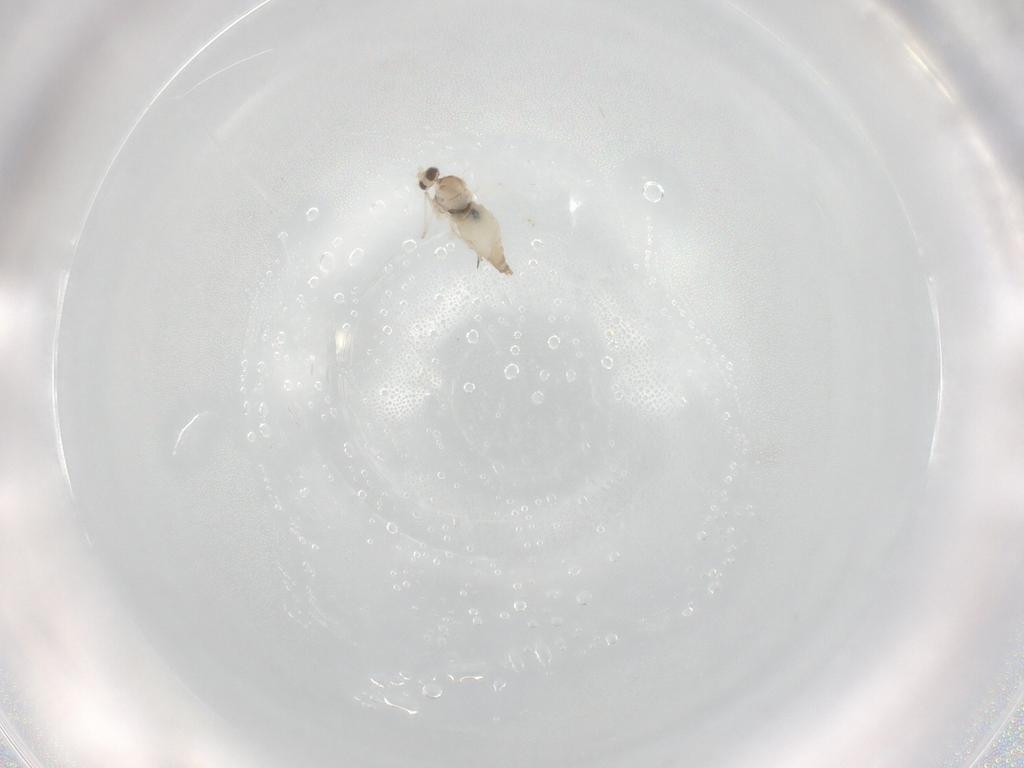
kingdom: Animalia
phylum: Arthropoda
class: Insecta
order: Diptera
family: Cecidomyiidae
